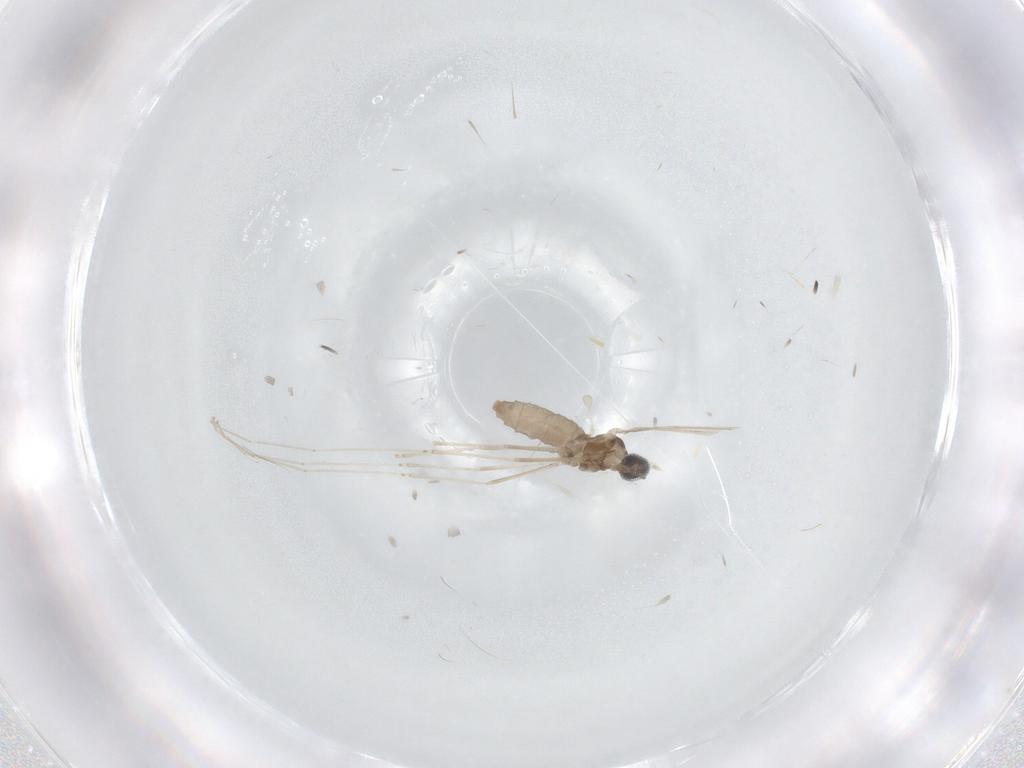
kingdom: Animalia
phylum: Arthropoda
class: Insecta
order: Diptera
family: Cecidomyiidae
